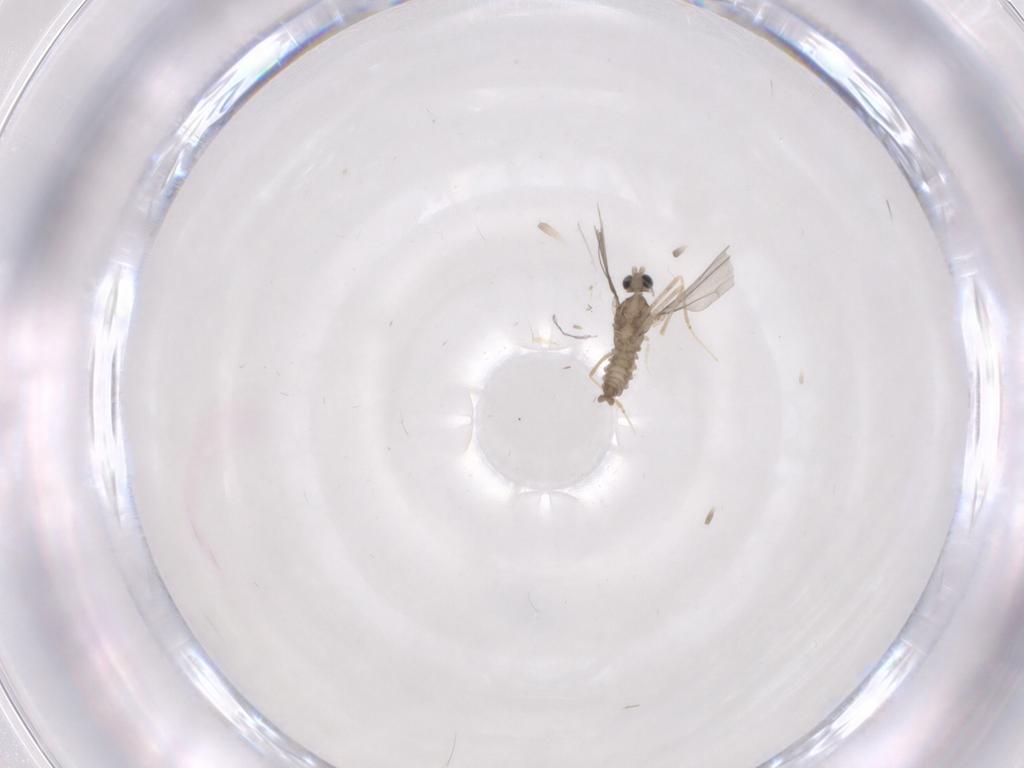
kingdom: Animalia
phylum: Arthropoda
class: Insecta
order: Diptera
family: Cecidomyiidae
